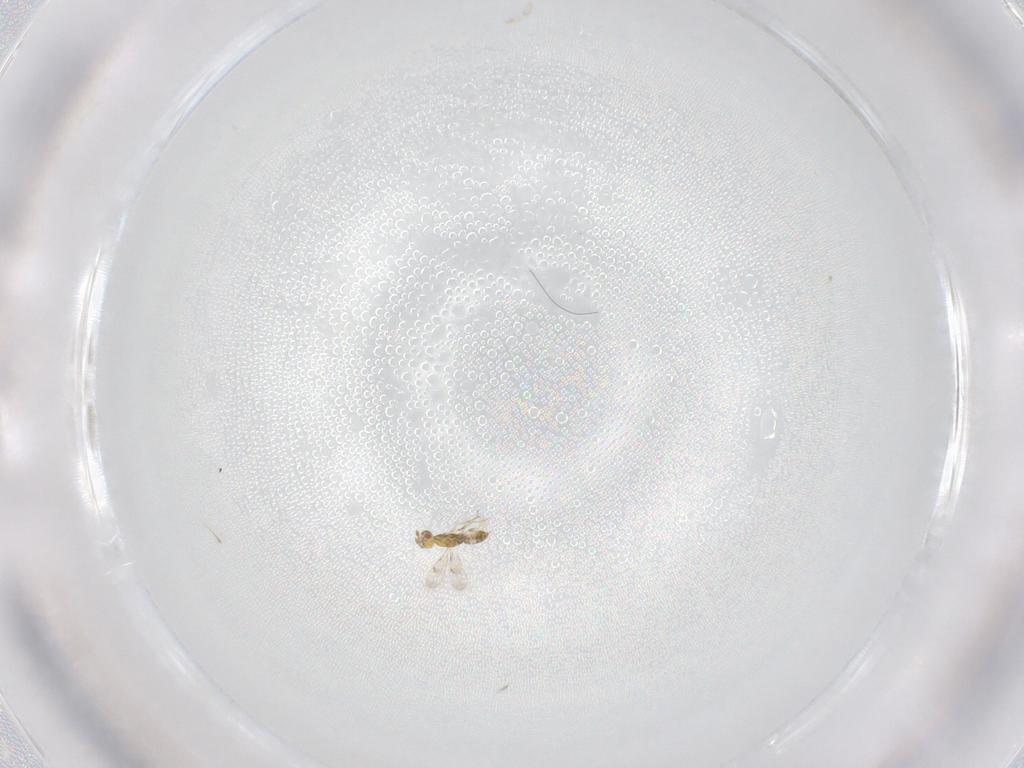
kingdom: Animalia
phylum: Arthropoda
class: Insecta
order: Hymenoptera
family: Eulophidae
